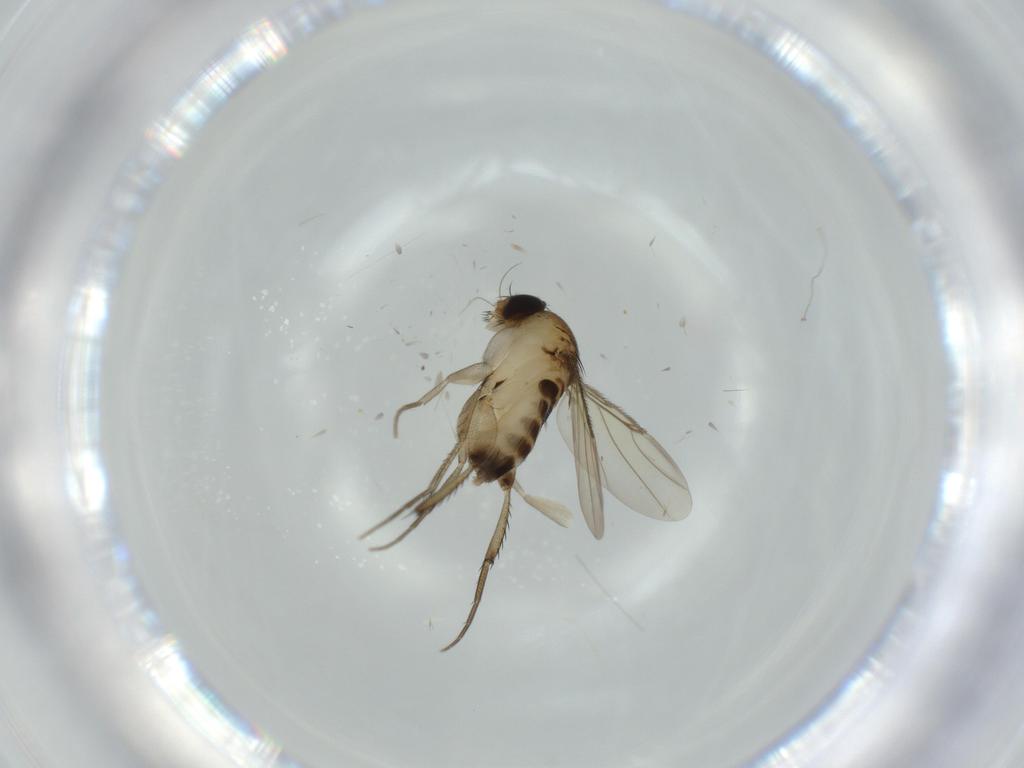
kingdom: Animalia
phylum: Arthropoda
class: Insecta
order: Diptera
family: Phoridae
